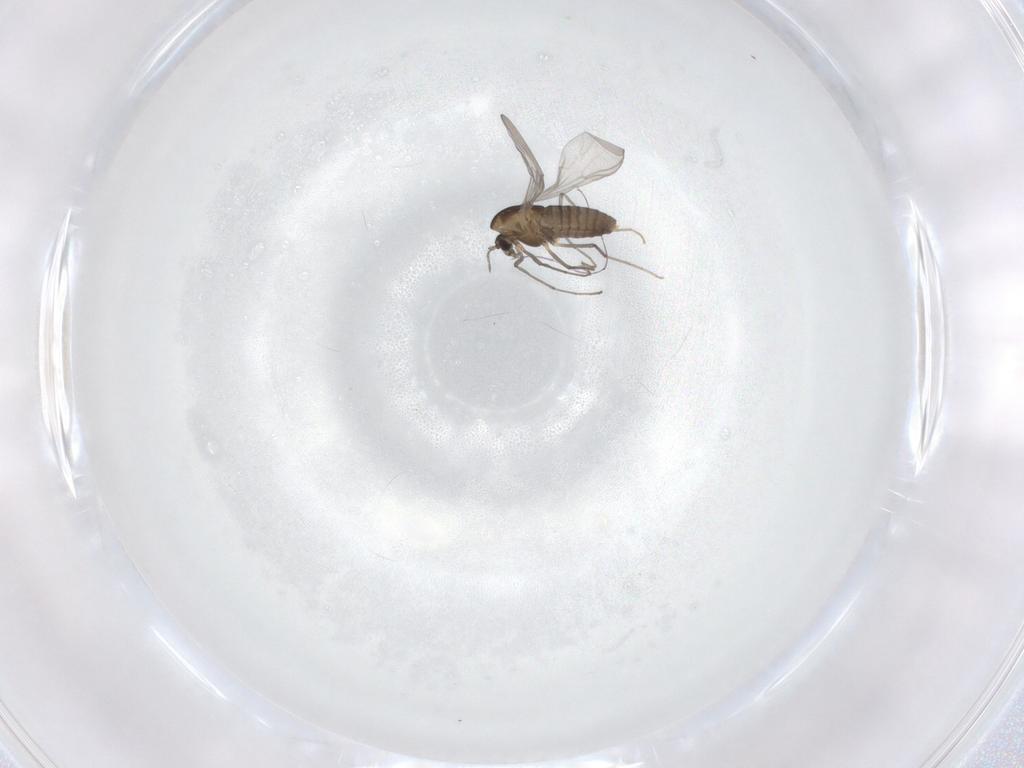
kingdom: Animalia
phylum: Arthropoda
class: Insecta
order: Diptera
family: Chironomidae
